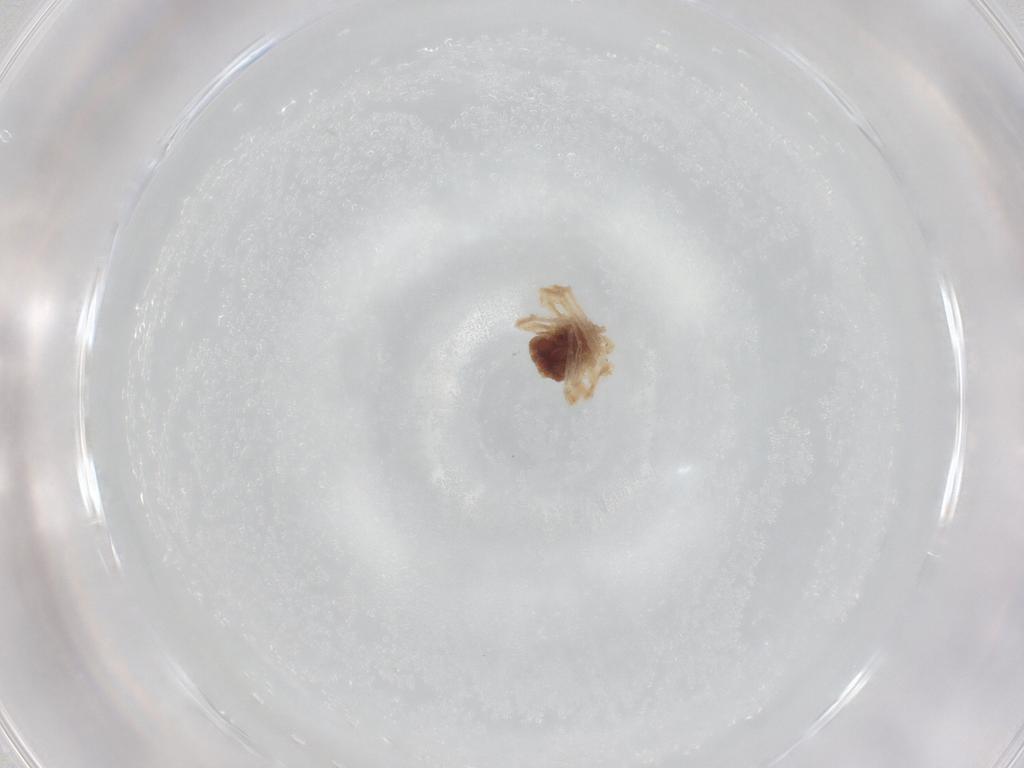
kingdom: Animalia
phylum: Arthropoda
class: Arachnida
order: Trombidiformes
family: Anystidae
